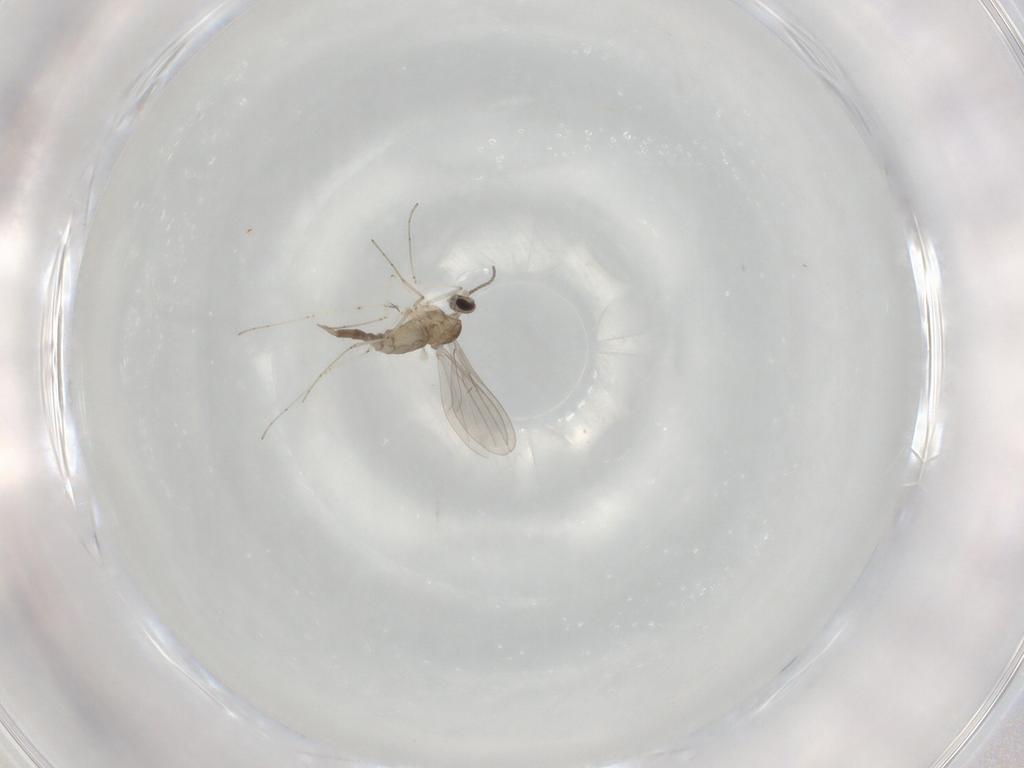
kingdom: Animalia
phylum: Arthropoda
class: Insecta
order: Diptera
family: Cecidomyiidae
